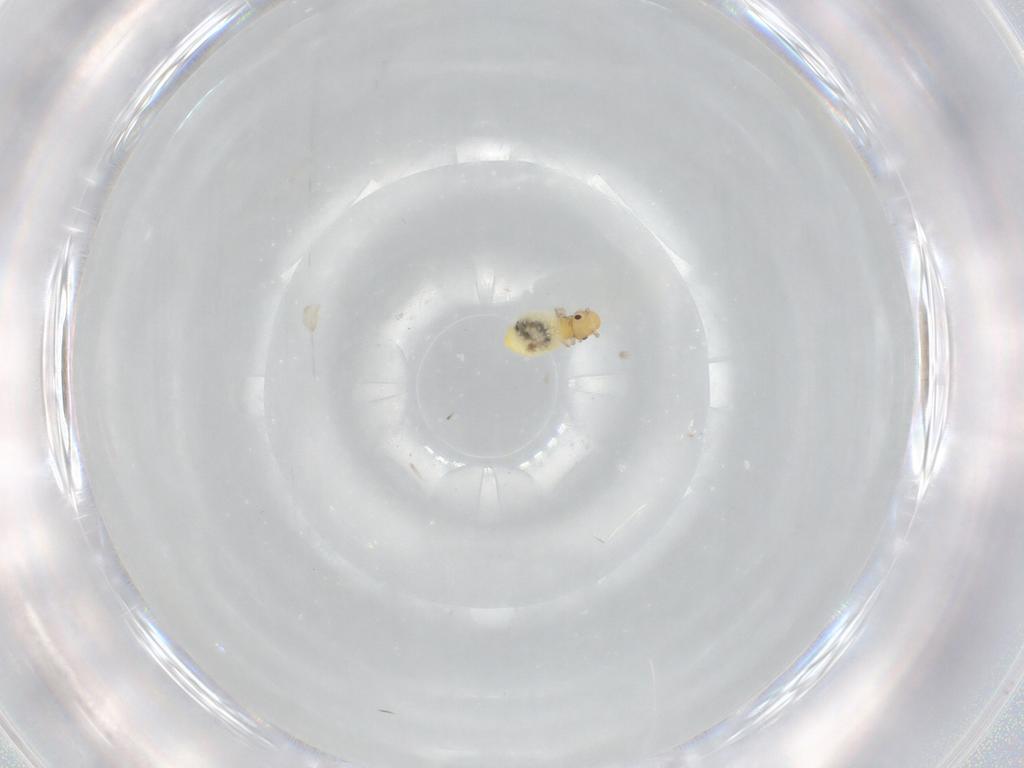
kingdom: Animalia
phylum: Arthropoda
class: Insecta
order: Psocodea
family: Caeciliusidae
